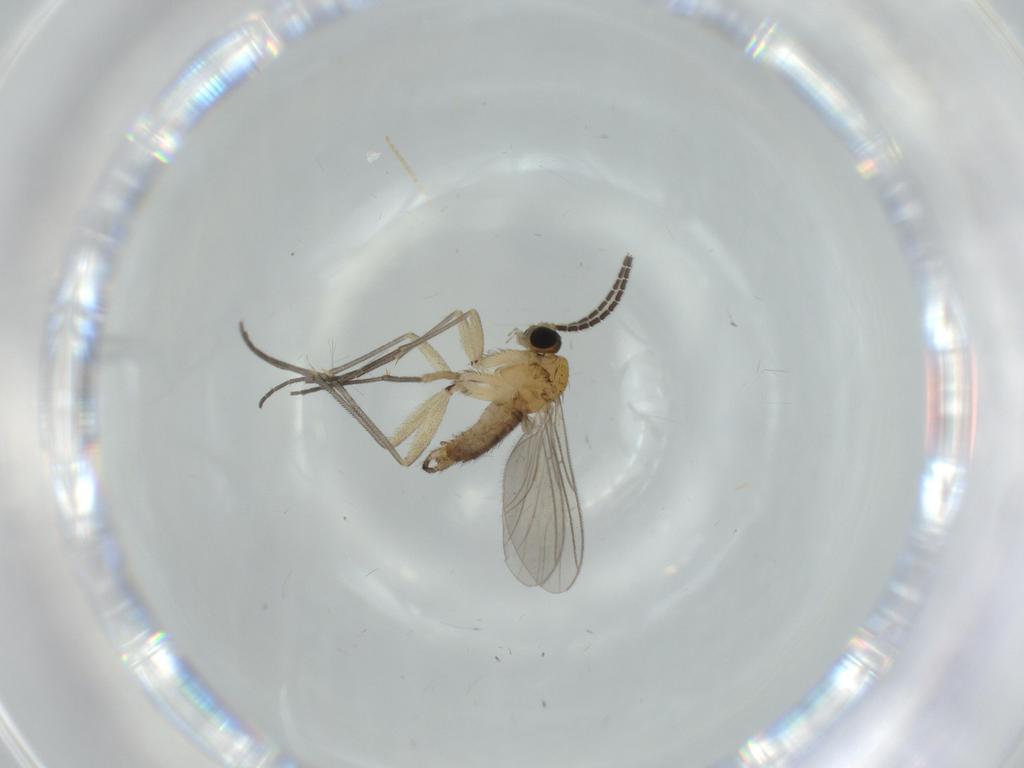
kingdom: Animalia
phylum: Arthropoda
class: Insecta
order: Diptera
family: Sciaridae
